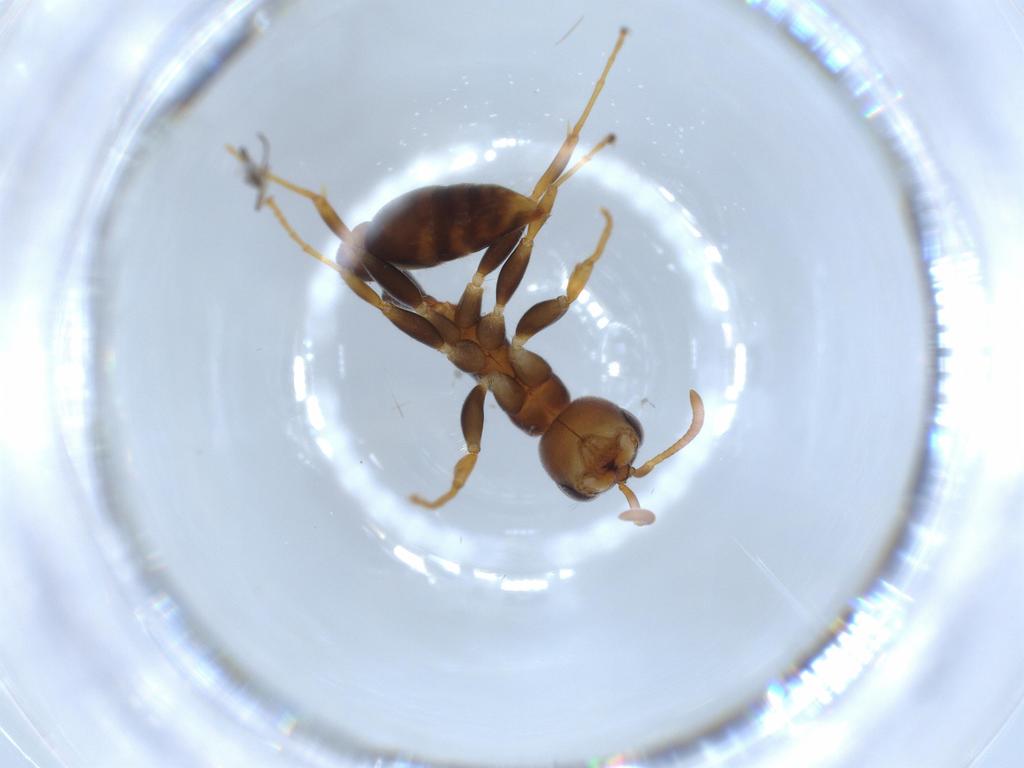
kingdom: Animalia
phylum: Arthropoda
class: Insecta
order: Hymenoptera
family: Formicidae
